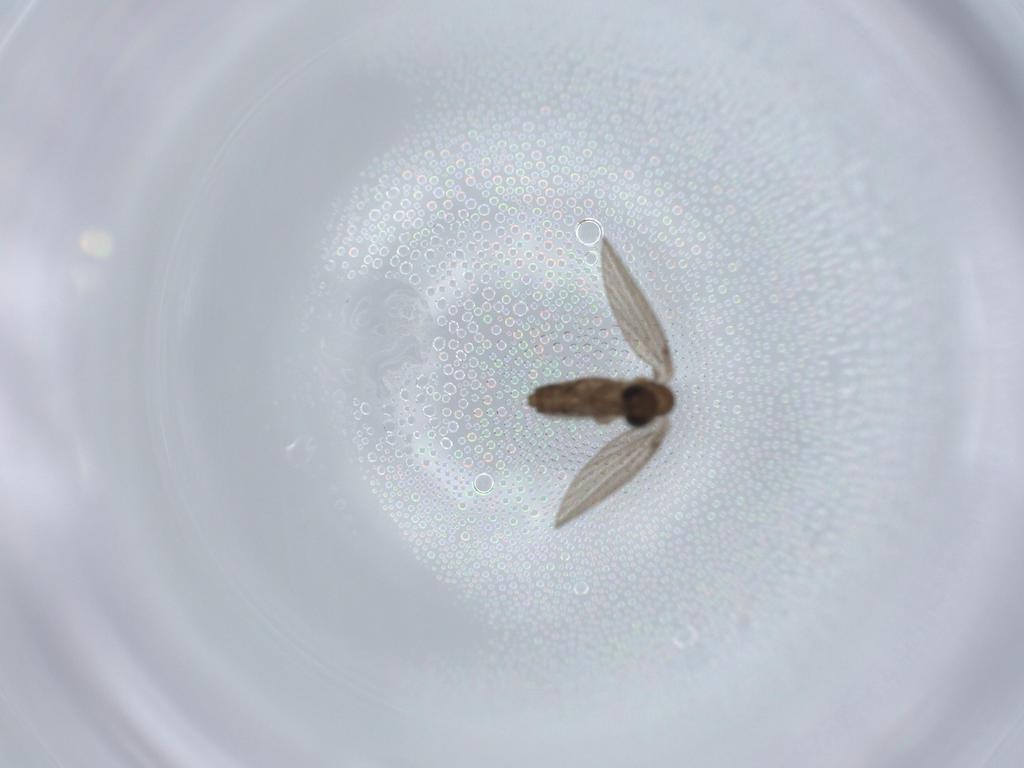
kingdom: Animalia
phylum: Arthropoda
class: Insecta
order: Diptera
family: Psychodidae
